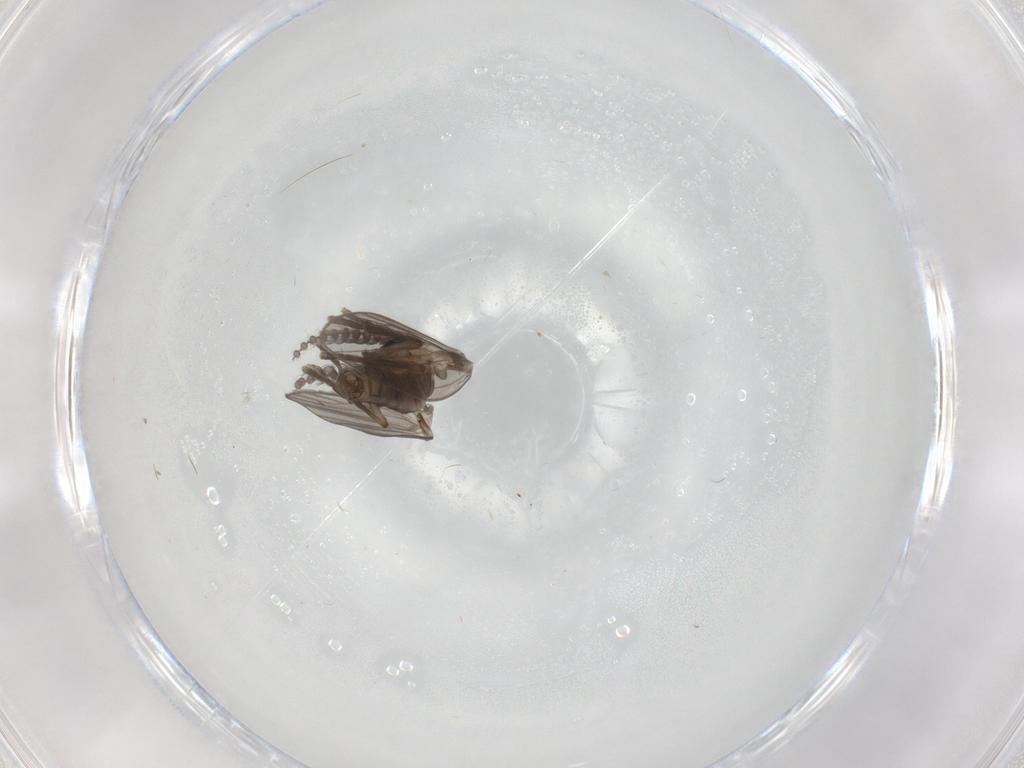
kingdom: Animalia
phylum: Arthropoda
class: Insecta
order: Diptera
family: Psychodidae
